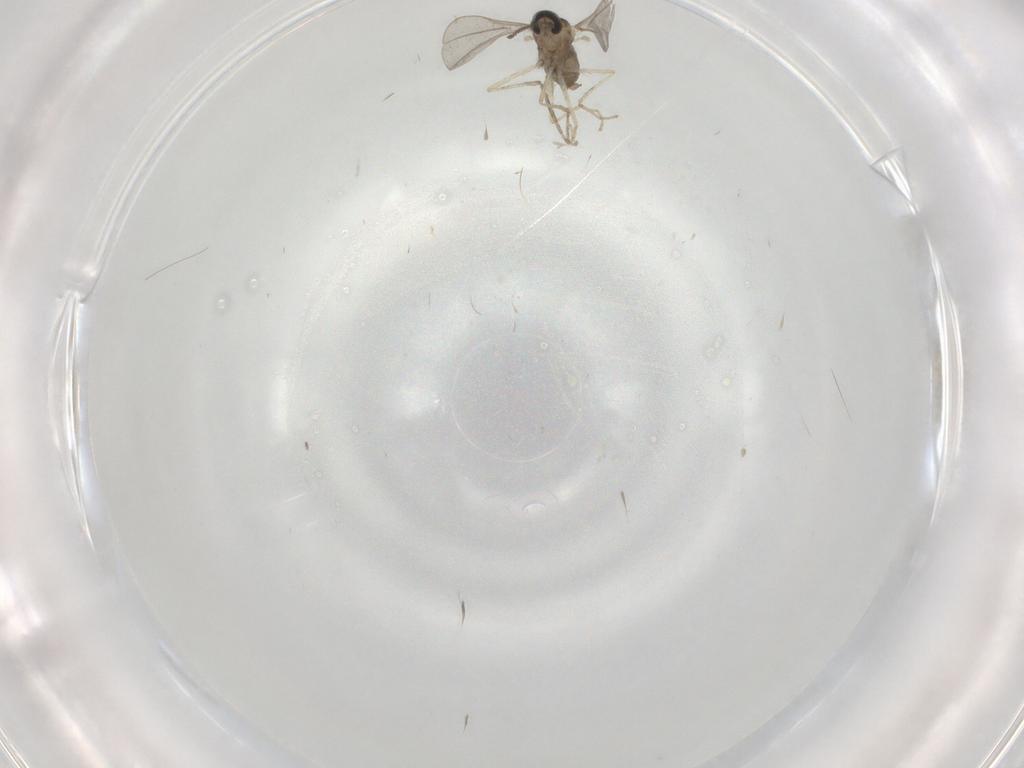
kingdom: Animalia
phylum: Arthropoda
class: Insecta
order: Diptera
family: Cecidomyiidae
